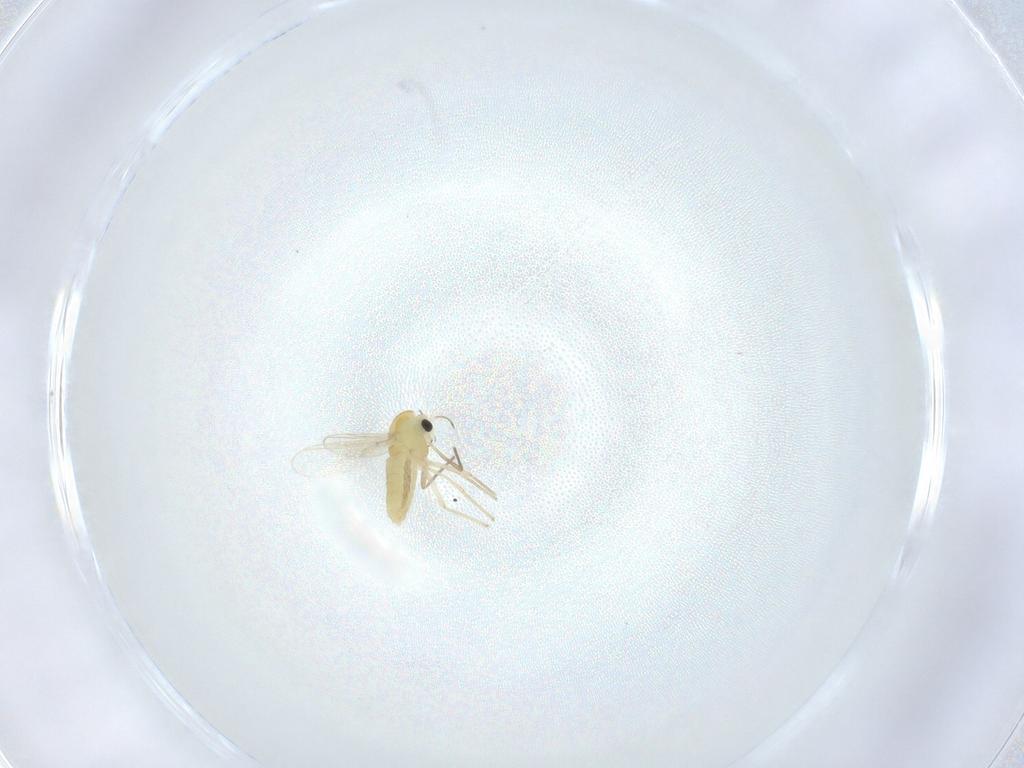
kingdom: Animalia
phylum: Arthropoda
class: Insecta
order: Diptera
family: Chironomidae
